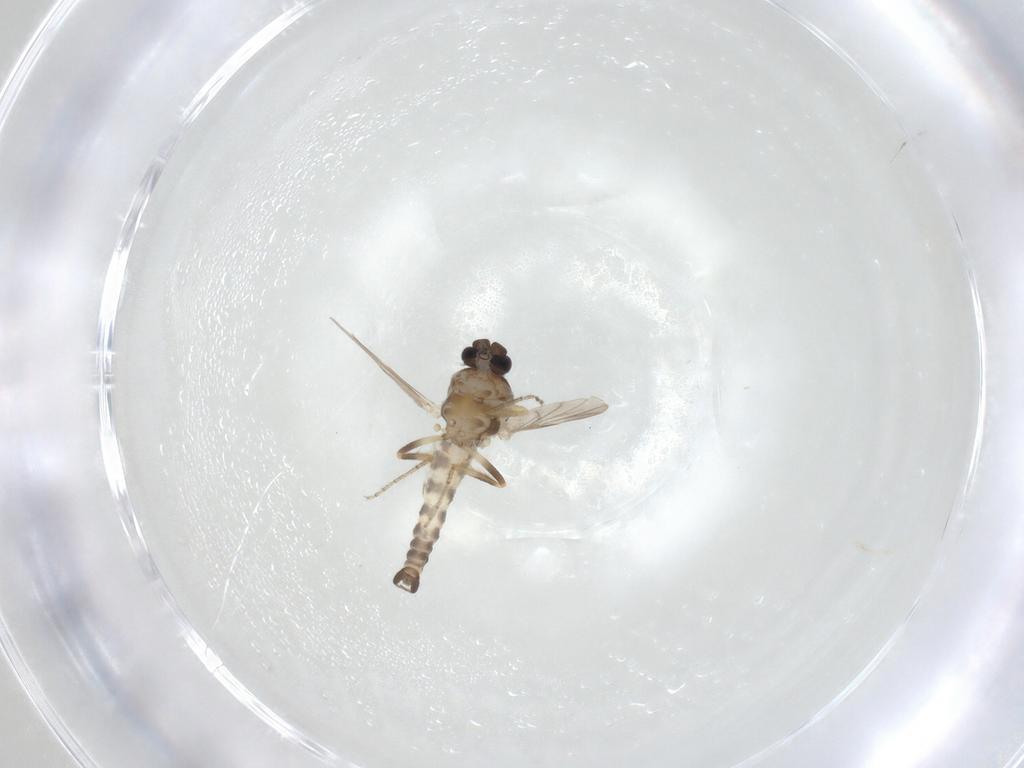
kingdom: Animalia
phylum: Arthropoda
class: Insecta
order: Diptera
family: Ceratopogonidae
